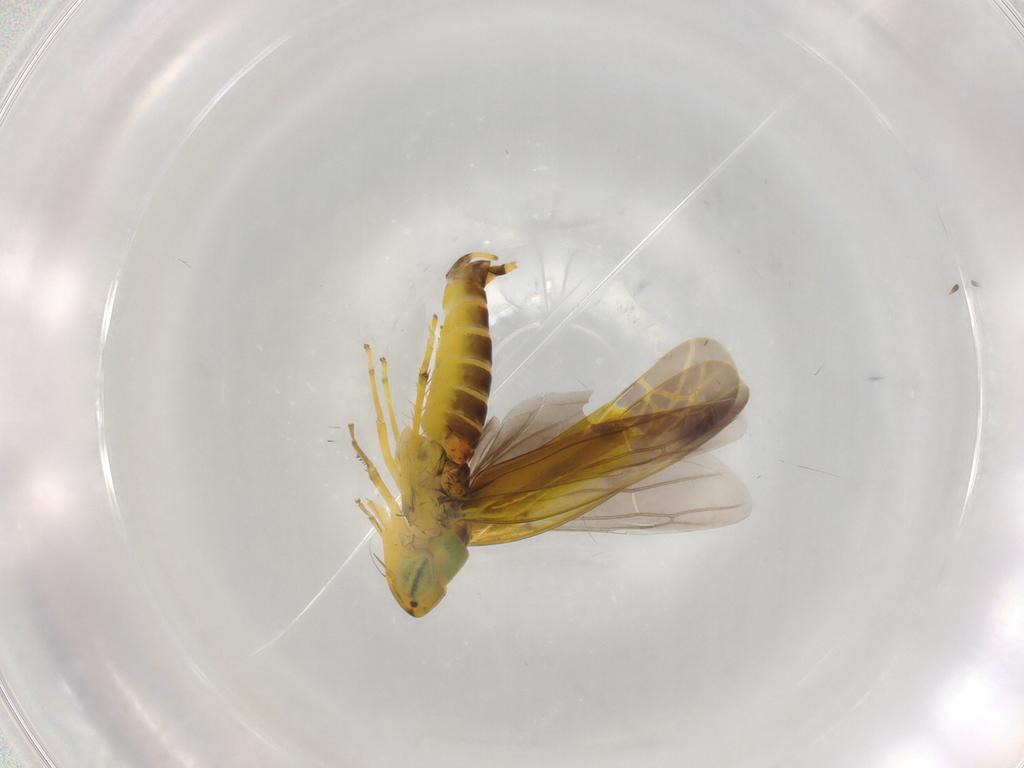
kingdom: Animalia
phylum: Arthropoda
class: Insecta
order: Hemiptera
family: Cicadellidae
